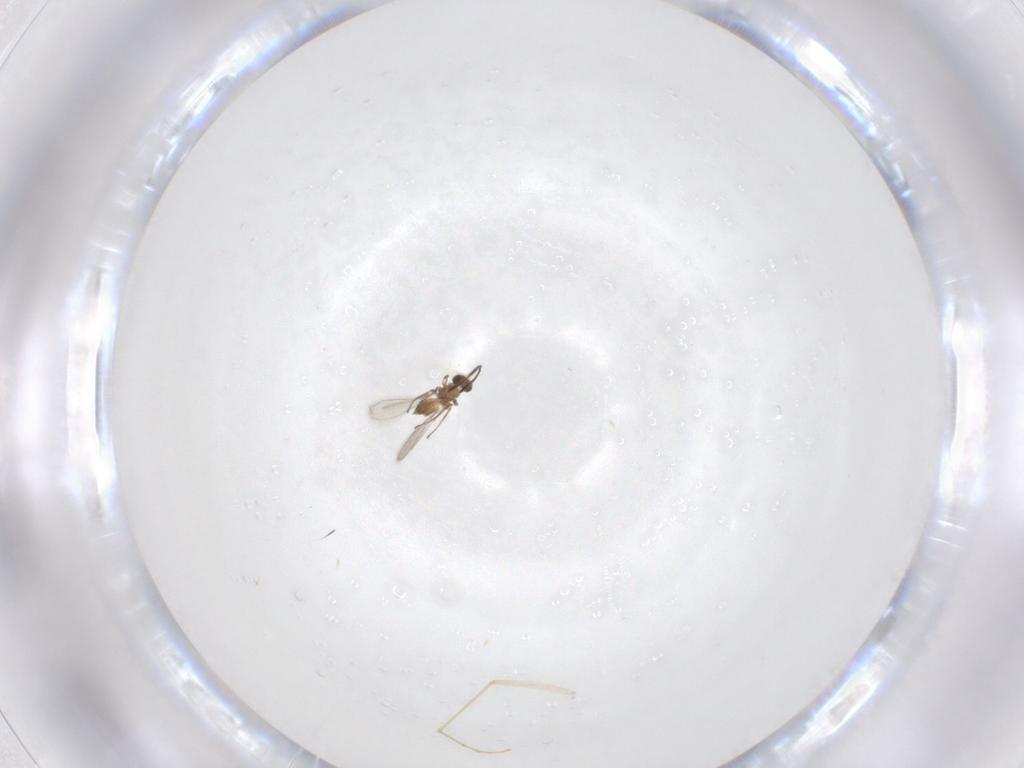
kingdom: Animalia
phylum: Arthropoda
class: Insecta
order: Hymenoptera
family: Mymaridae
